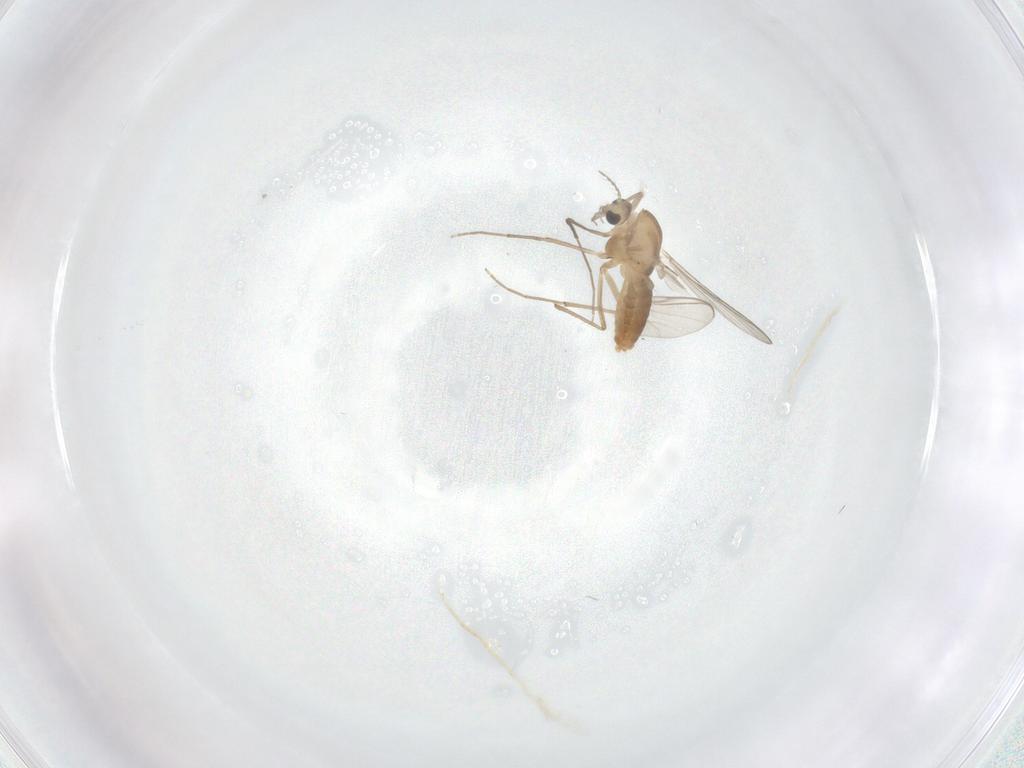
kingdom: Animalia
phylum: Arthropoda
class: Insecta
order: Diptera
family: Chironomidae
